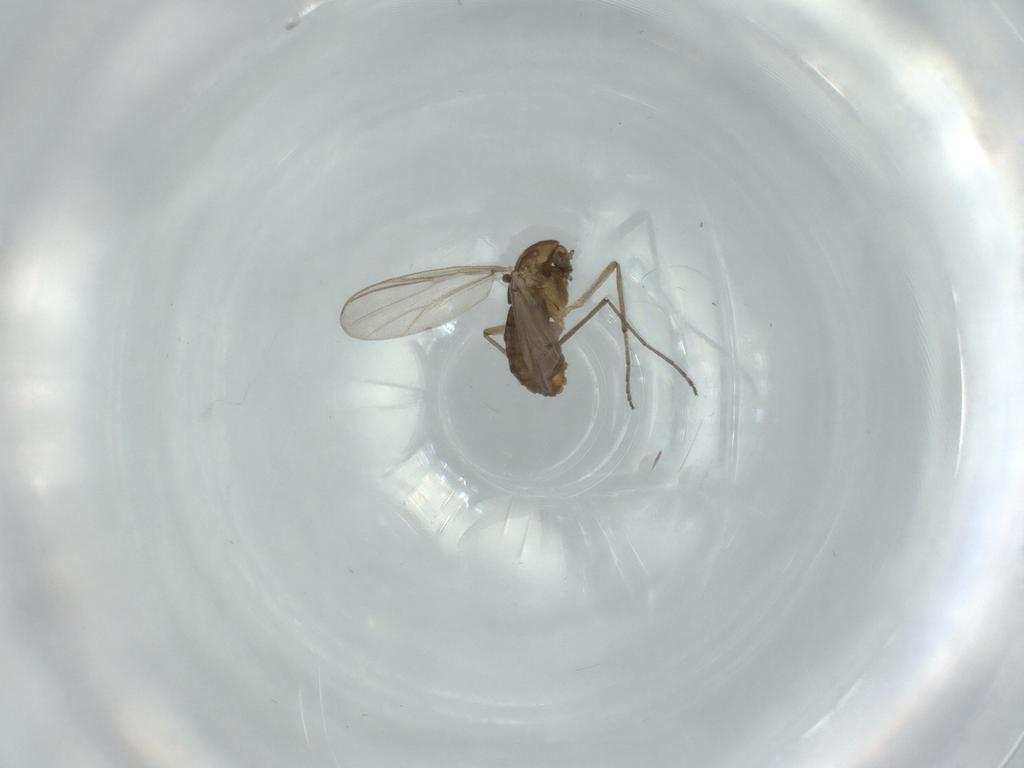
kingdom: Animalia
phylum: Arthropoda
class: Insecta
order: Diptera
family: Chironomidae
